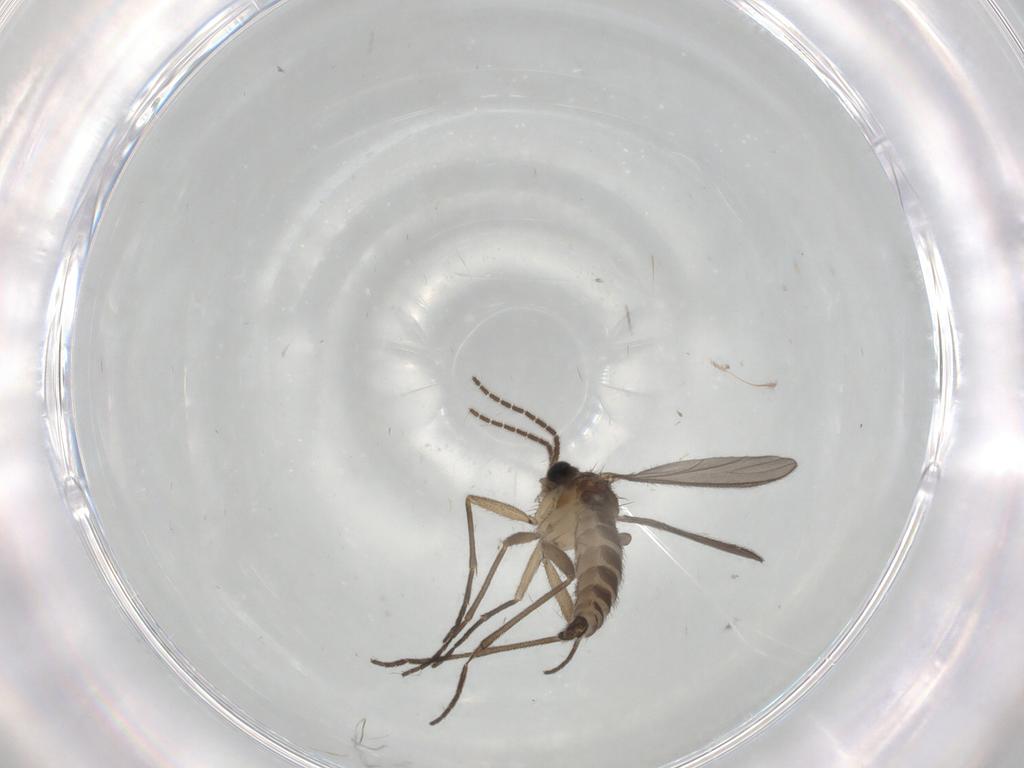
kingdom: Animalia
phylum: Arthropoda
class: Insecta
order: Diptera
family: Sciaridae
